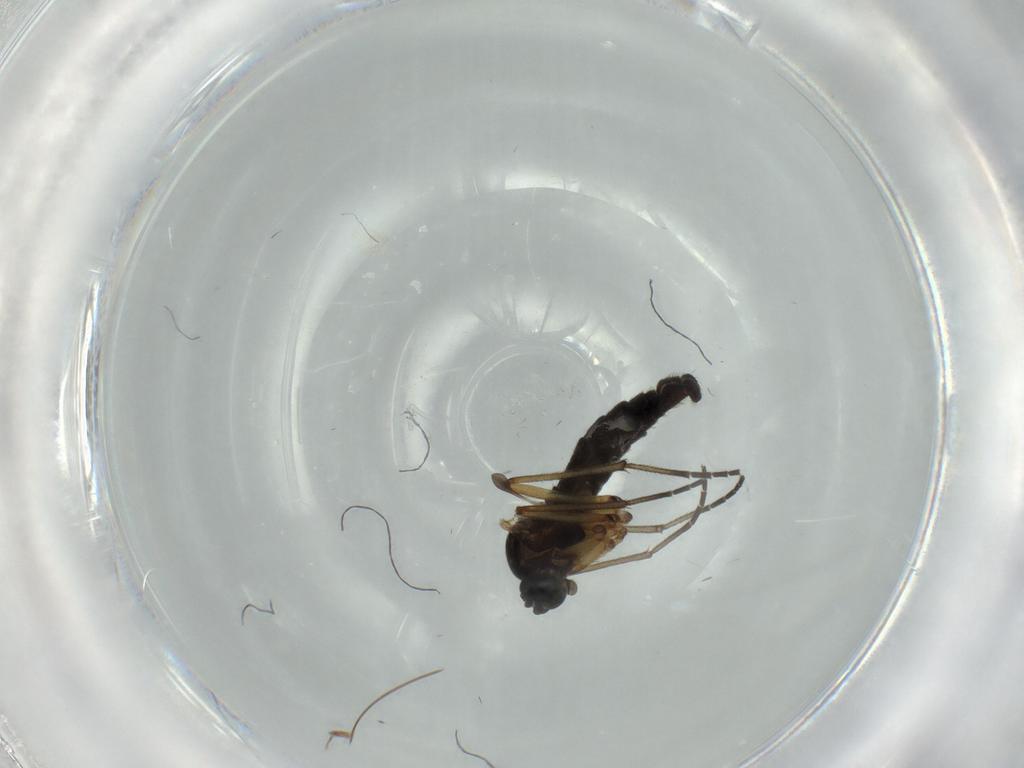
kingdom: Animalia
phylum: Arthropoda
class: Insecta
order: Diptera
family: Sciaridae
